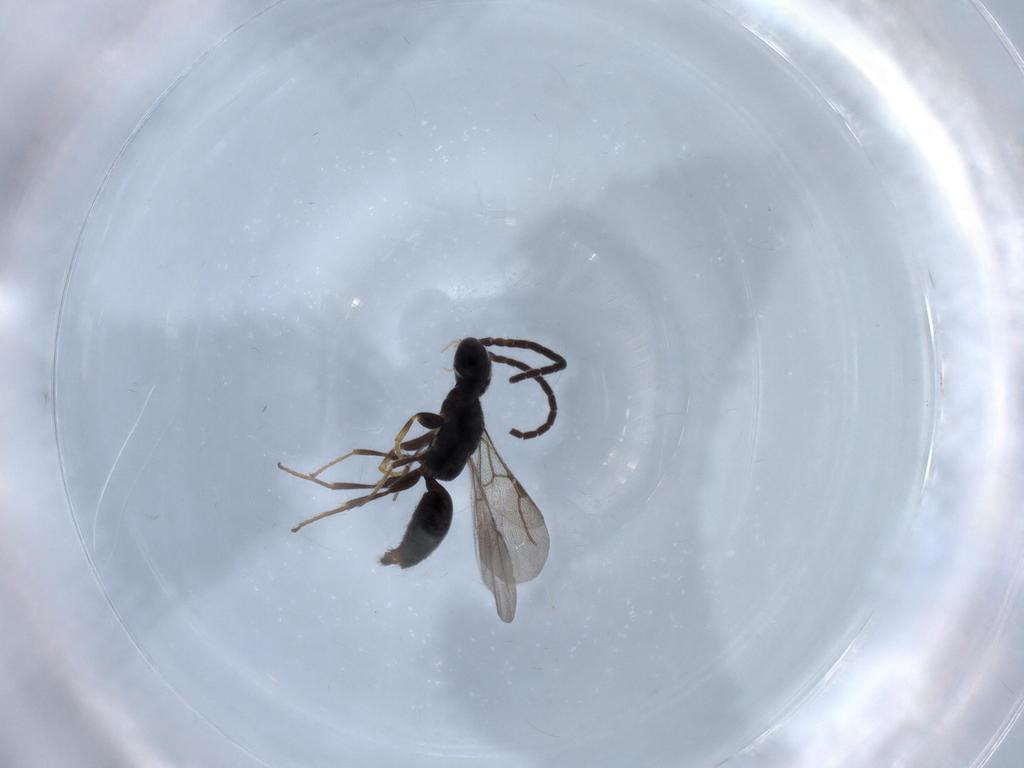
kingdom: Animalia
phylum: Arthropoda
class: Insecta
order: Hymenoptera
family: Bethylidae
